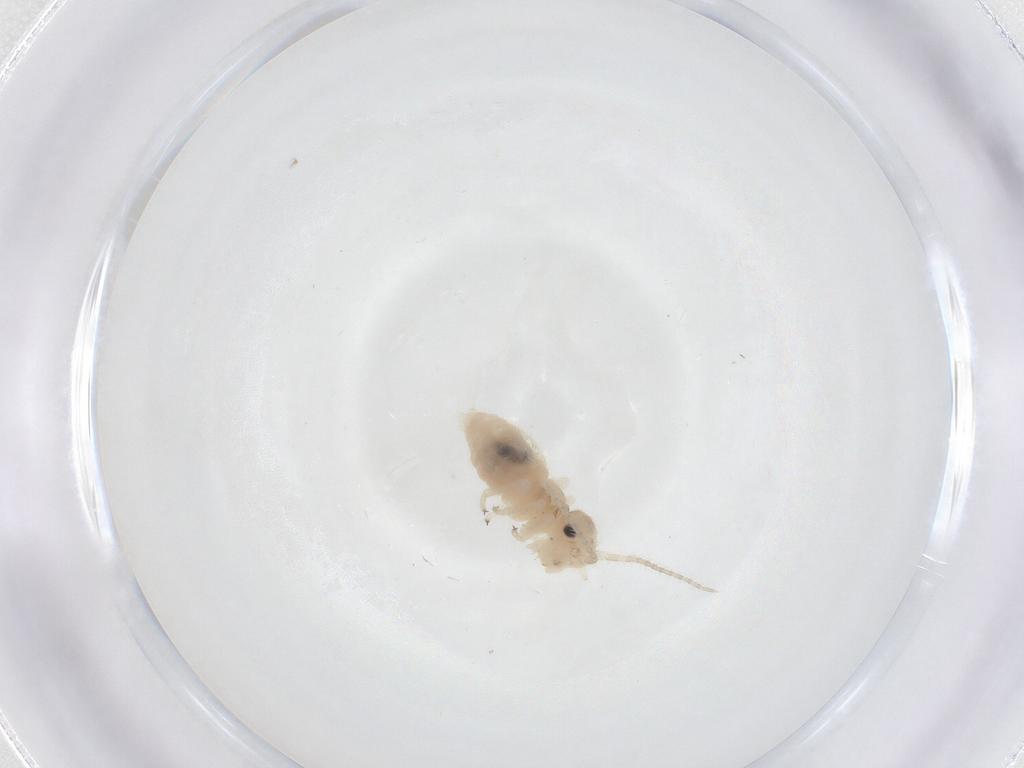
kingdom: Animalia
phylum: Arthropoda
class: Insecta
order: Psocodea
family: Amphipsocidae
